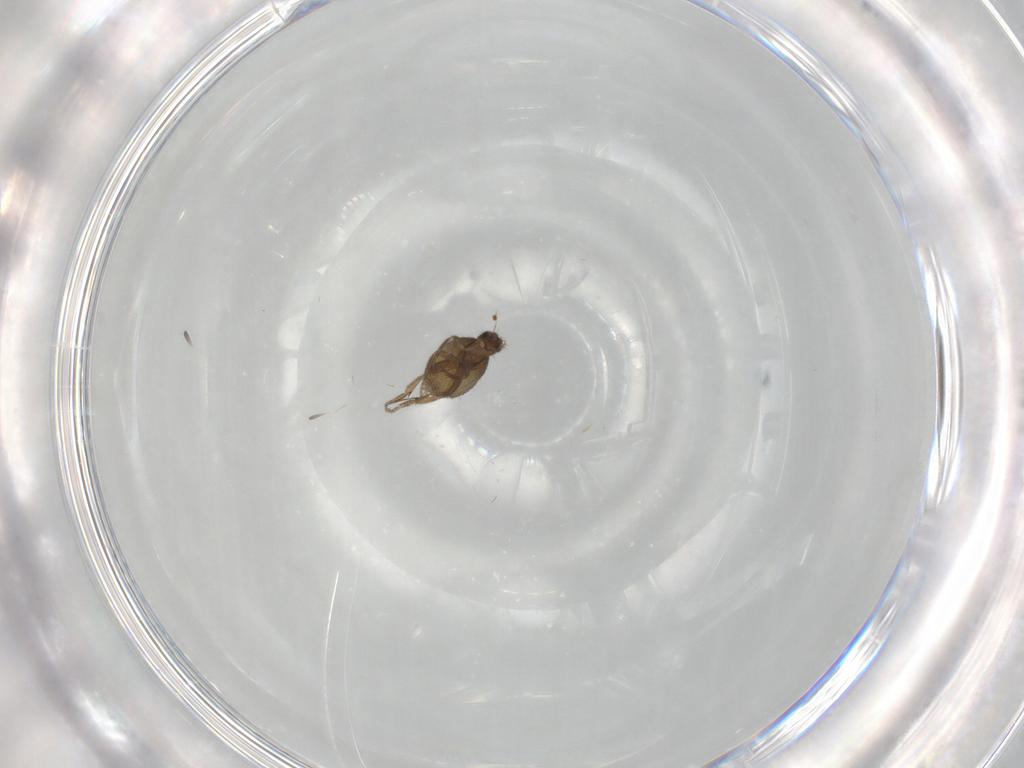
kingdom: Animalia
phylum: Arthropoda
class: Insecta
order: Diptera
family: Phoridae
